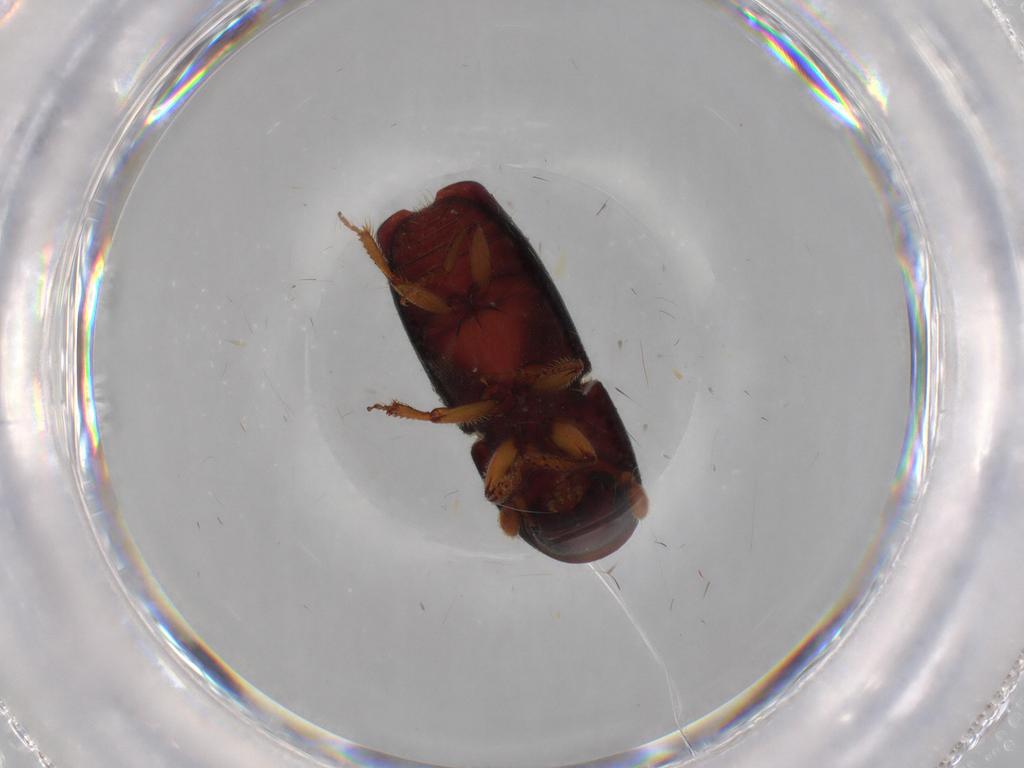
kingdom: Animalia
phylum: Arthropoda
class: Insecta
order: Coleoptera
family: Curculionidae
